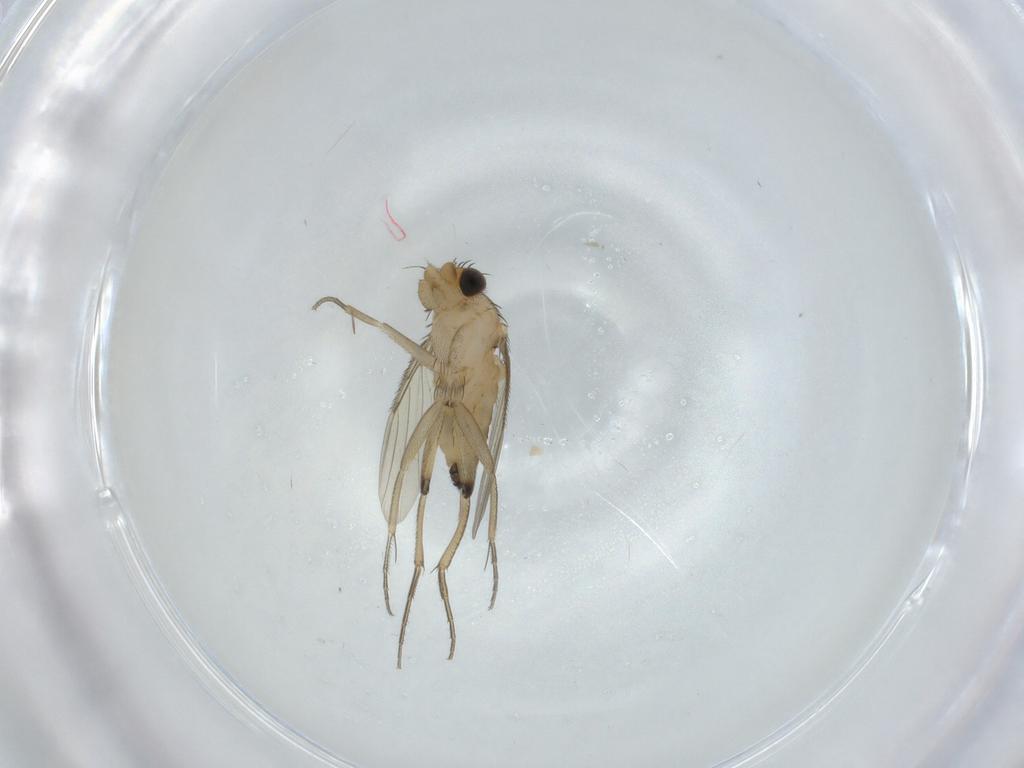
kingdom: Animalia
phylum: Arthropoda
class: Insecta
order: Diptera
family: Phoridae
